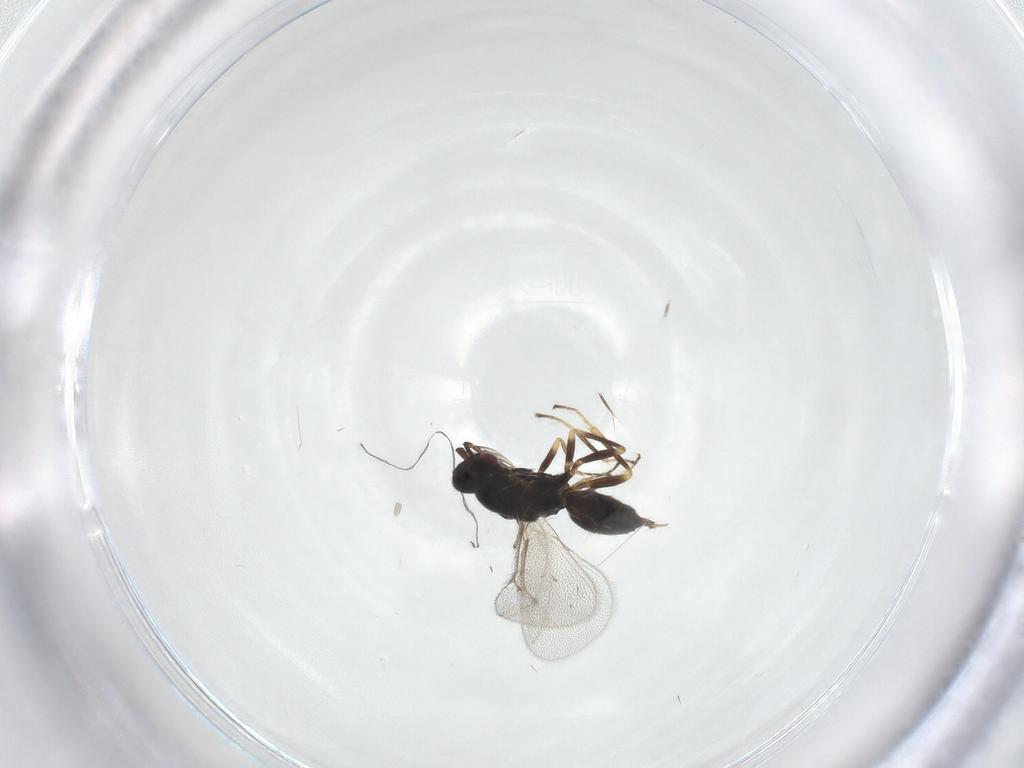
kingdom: Animalia
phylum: Arthropoda
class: Insecta
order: Hymenoptera
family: Eulophidae
